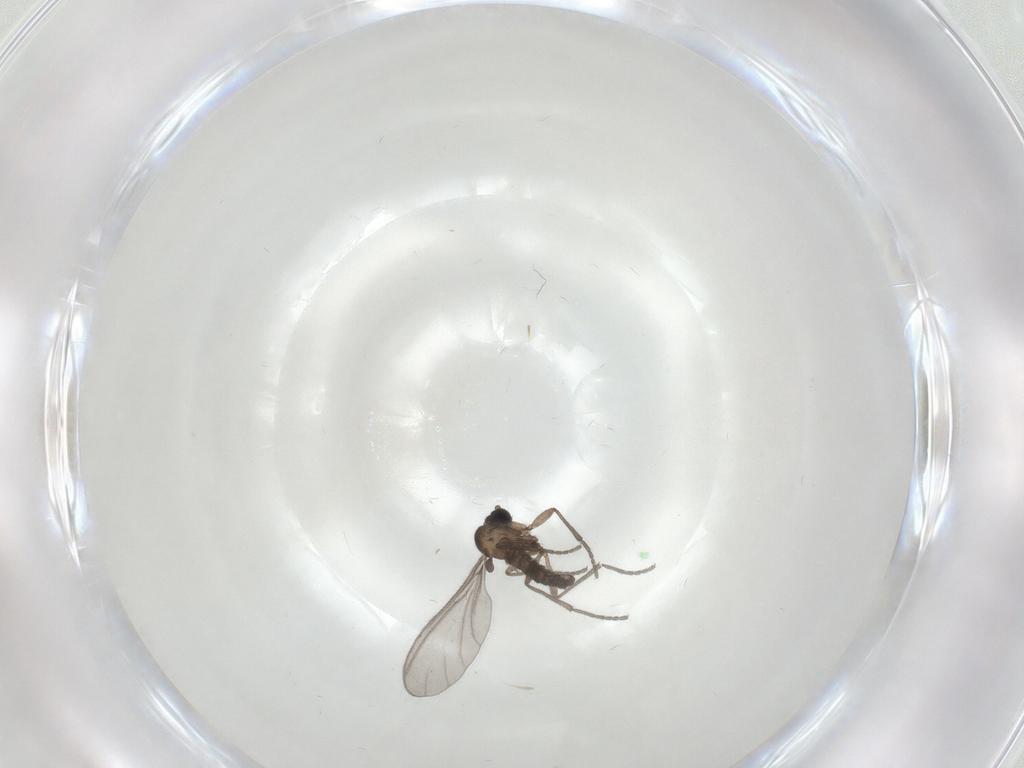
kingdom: Animalia
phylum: Arthropoda
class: Insecta
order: Diptera
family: Sciaridae
